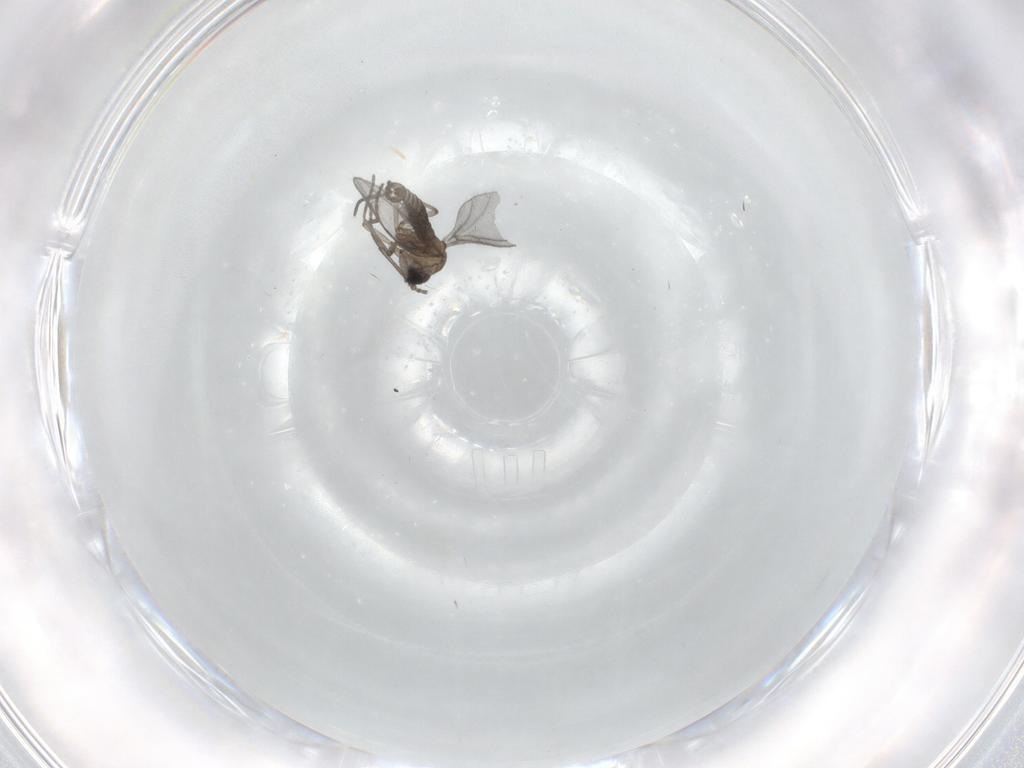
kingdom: Animalia
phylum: Arthropoda
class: Insecta
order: Diptera
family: Sciaridae
